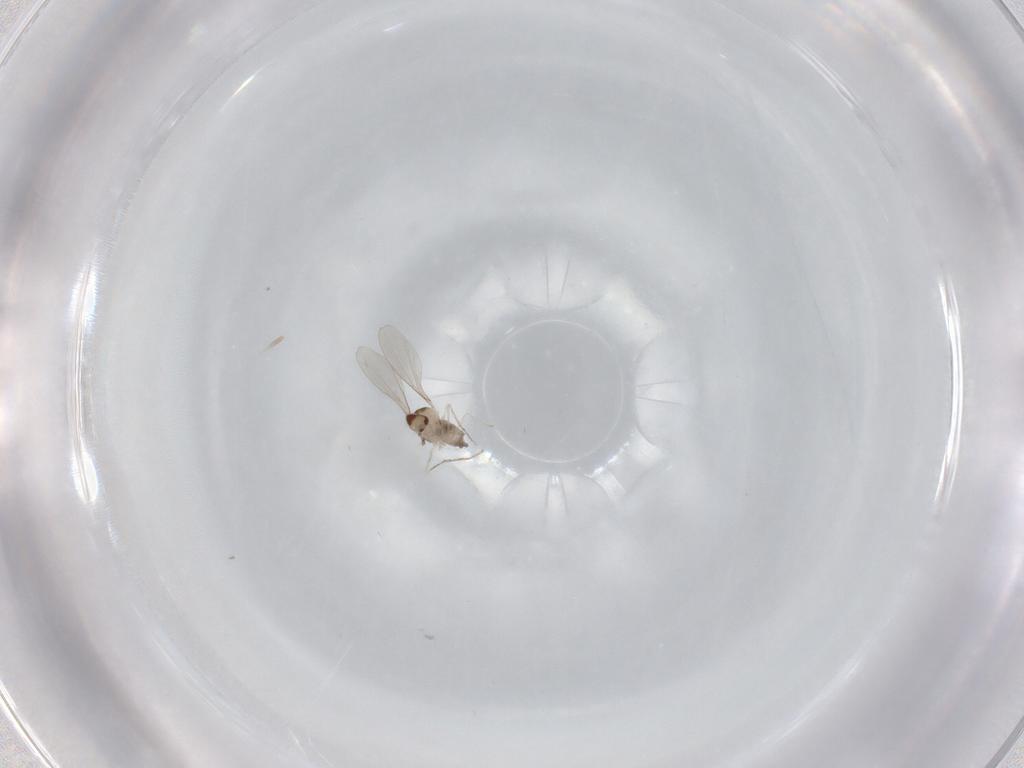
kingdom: Animalia
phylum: Arthropoda
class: Insecta
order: Diptera
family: Cecidomyiidae
